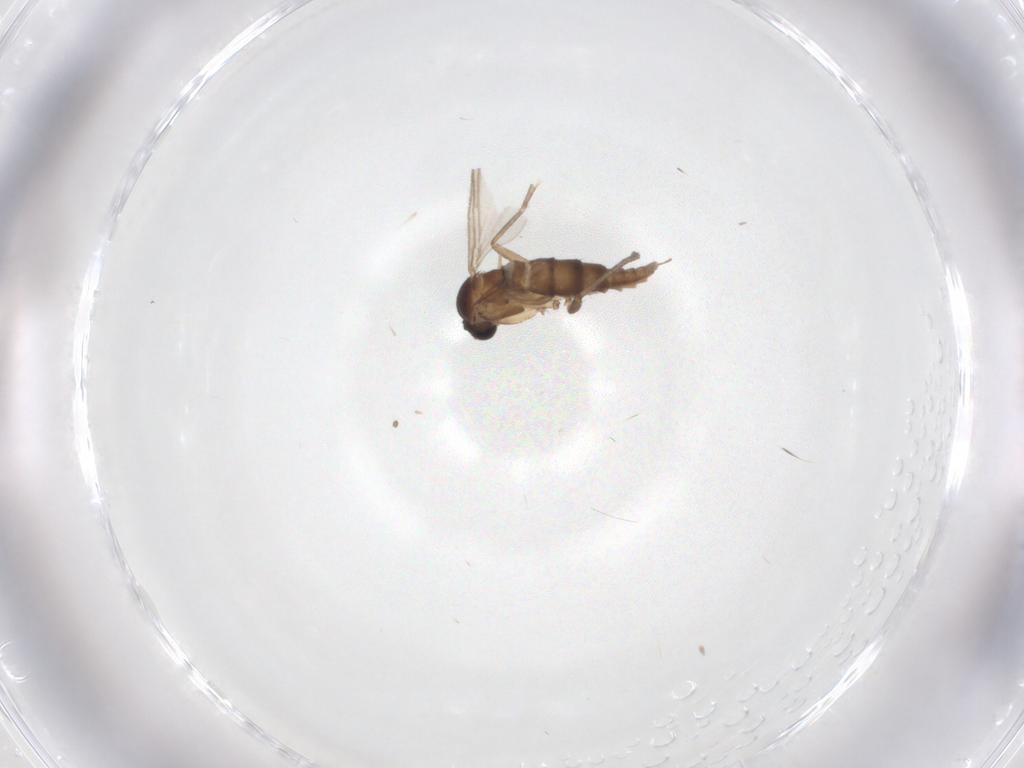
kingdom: Animalia
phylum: Arthropoda
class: Insecta
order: Diptera
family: Sciaridae
